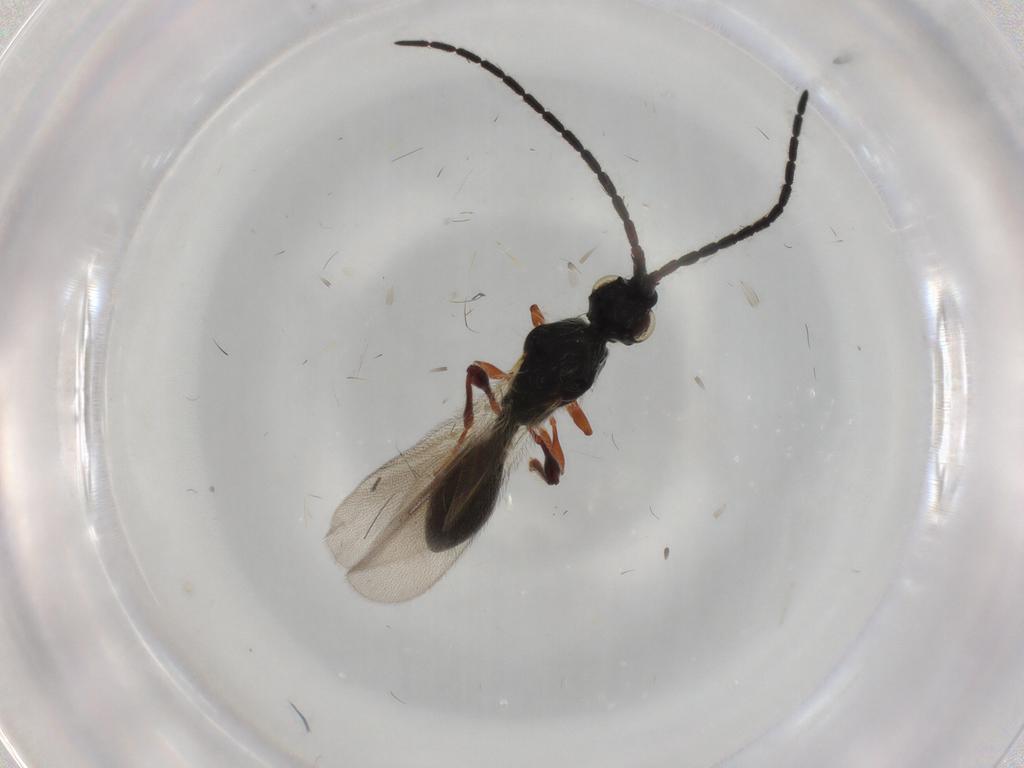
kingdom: Animalia
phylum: Arthropoda
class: Insecta
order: Hymenoptera
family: Diapriidae
